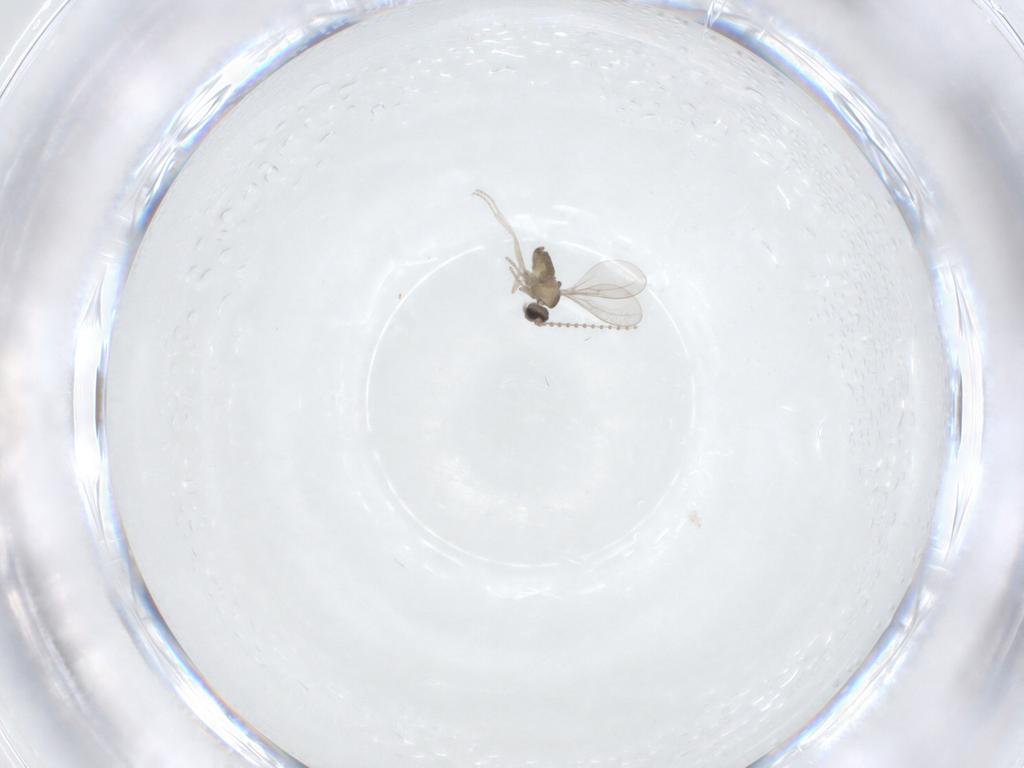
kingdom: Animalia
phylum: Arthropoda
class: Insecta
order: Diptera
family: Cecidomyiidae
